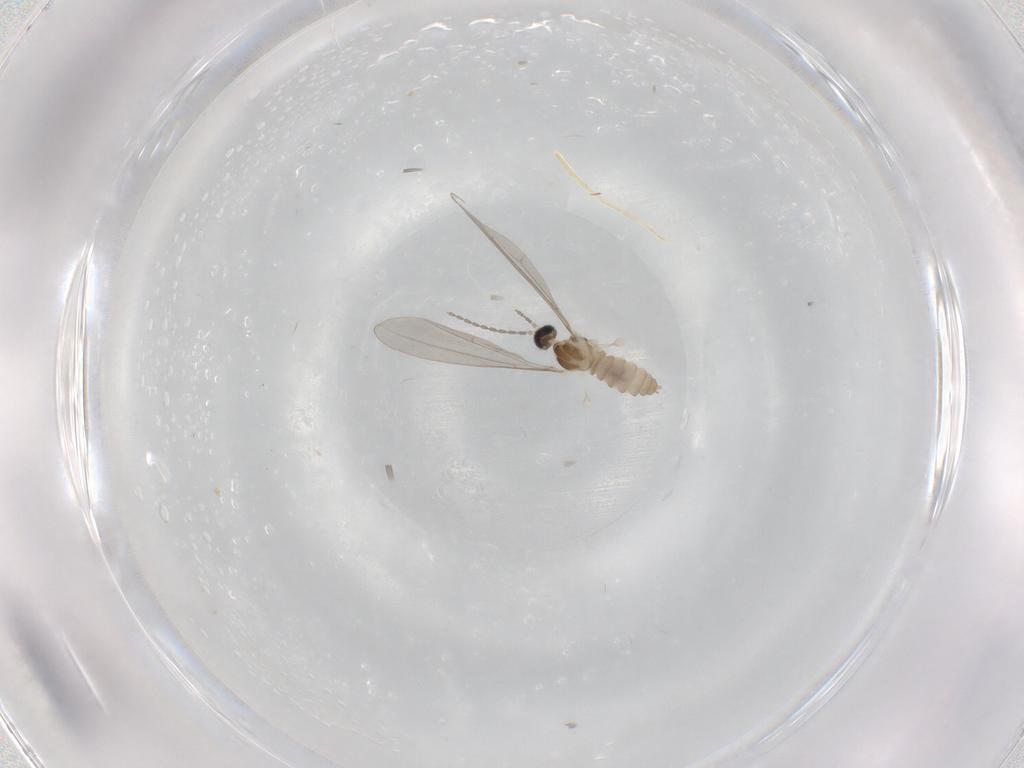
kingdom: Animalia
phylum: Arthropoda
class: Insecta
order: Diptera
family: Cecidomyiidae
